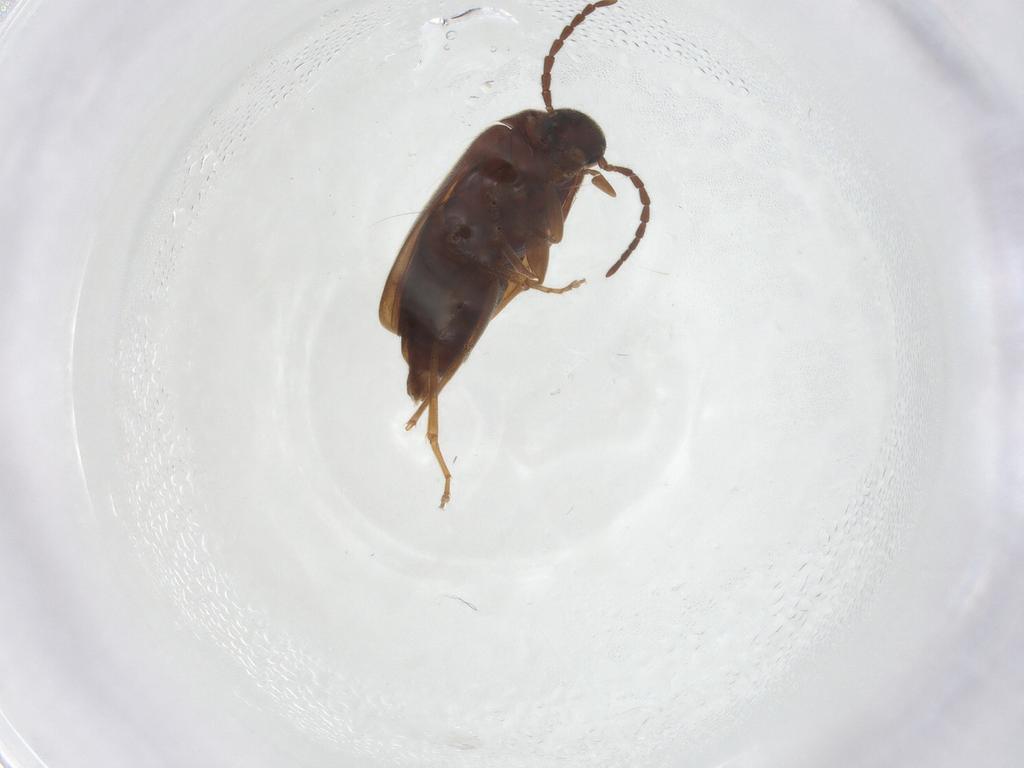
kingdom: Animalia
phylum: Arthropoda
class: Insecta
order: Coleoptera
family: Scraptiidae
